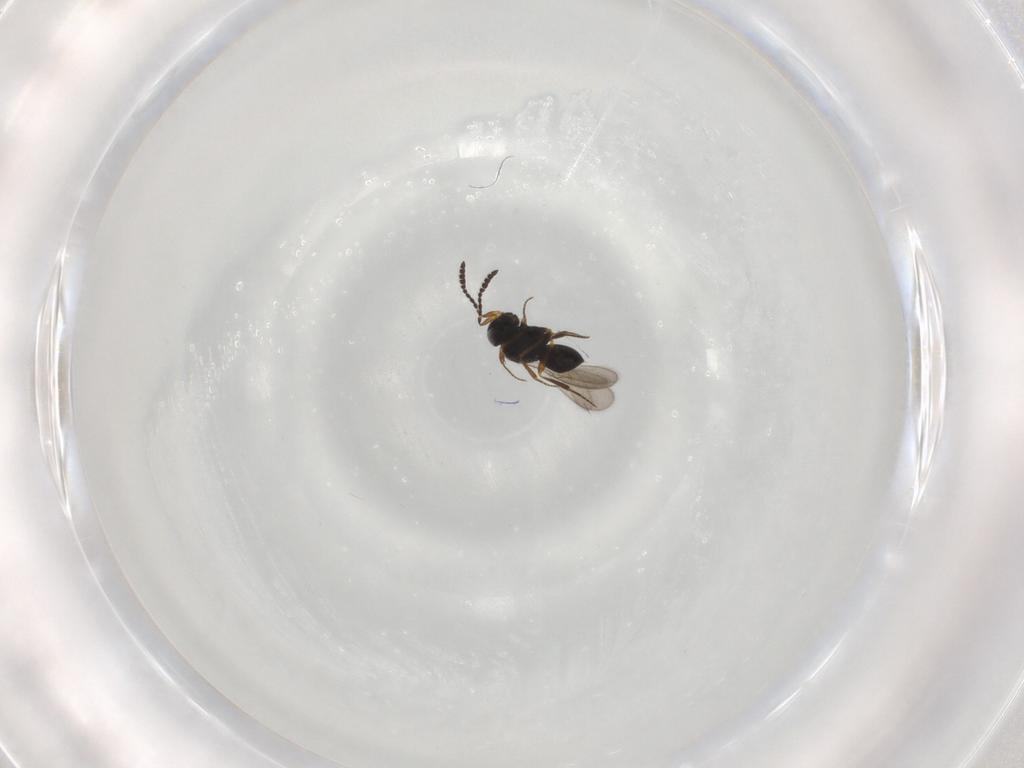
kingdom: Animalia
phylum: Arthropoda
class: Insecta
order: Hymenoptera
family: Scelionidae
